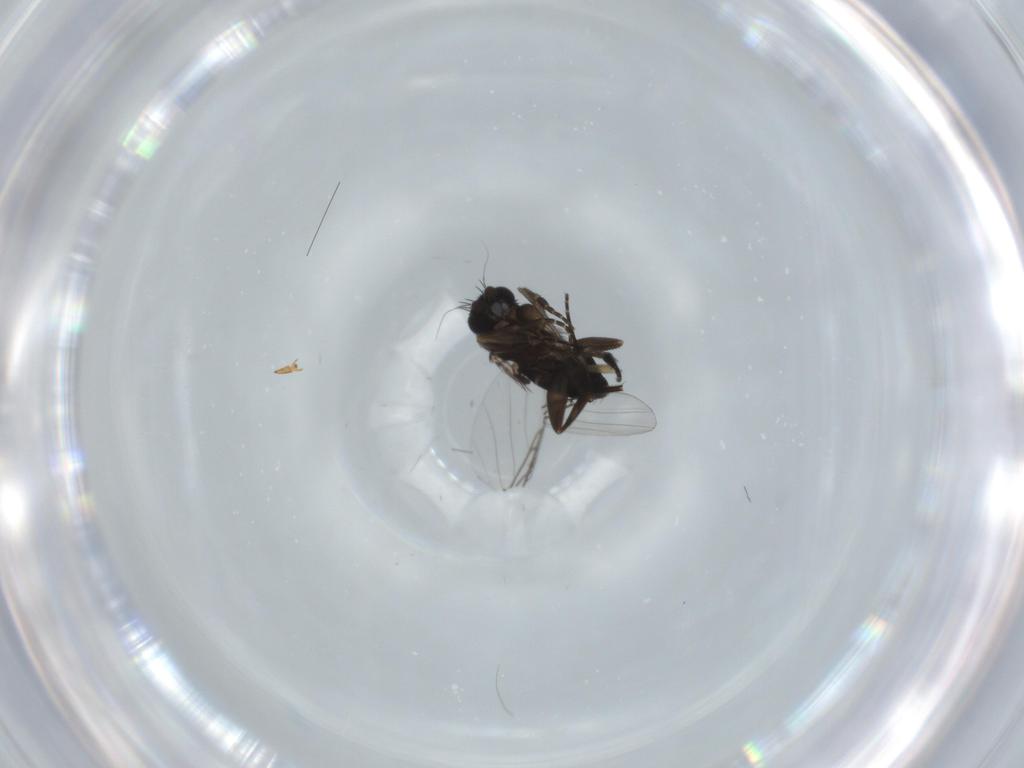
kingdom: Animalia
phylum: Arthropoda
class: Insecta
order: Diptera
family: Phoridae
